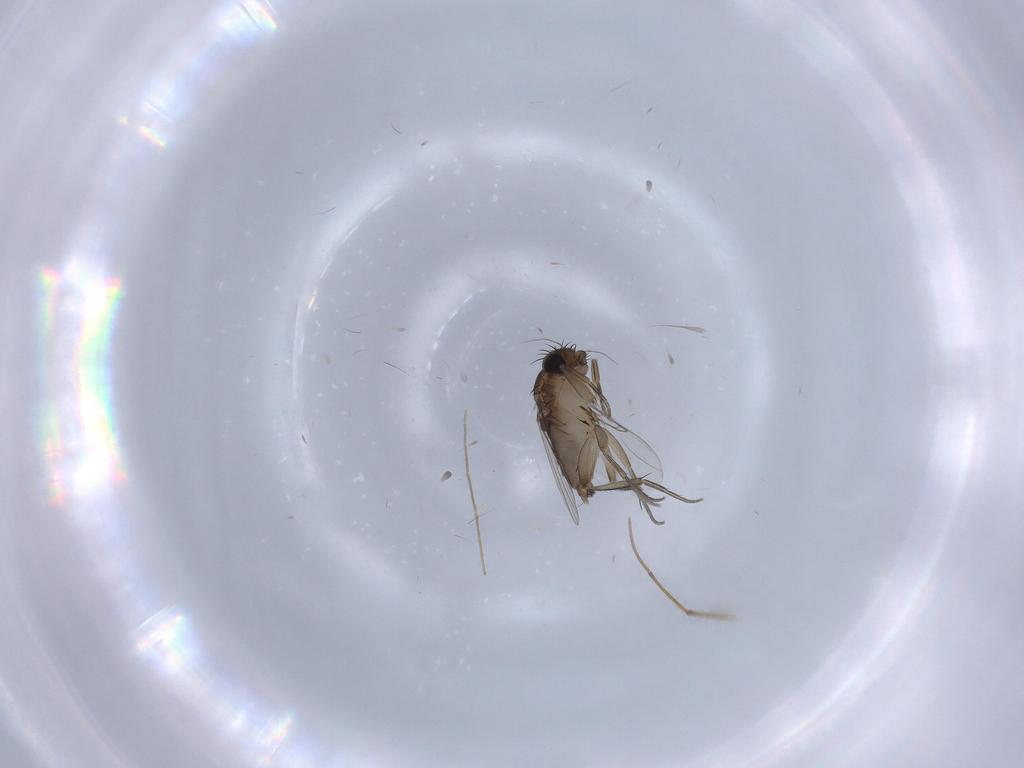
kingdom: Animalia
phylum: Arthropoda
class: Insecta
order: Diptera
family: Chironomidae
